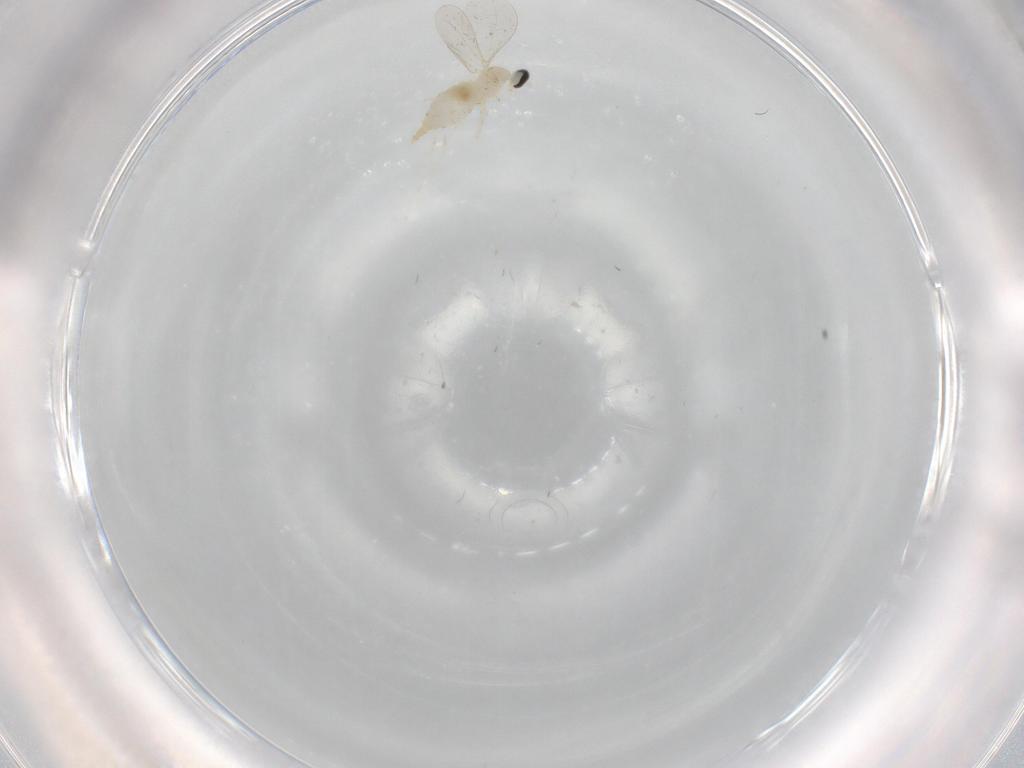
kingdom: Animalia
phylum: Arthropoda
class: Insecta
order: Diptera
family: Cecidomyiidae
